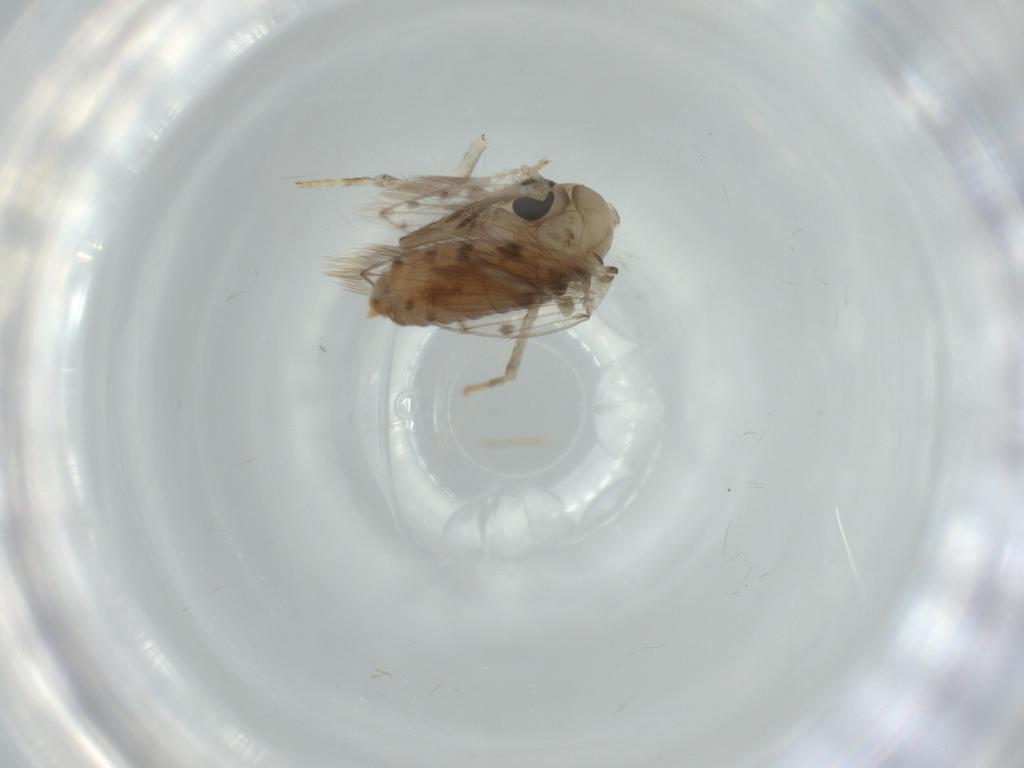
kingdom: Animalia
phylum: Arthropoda
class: Insecta
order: Diptera
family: Psychodidae
